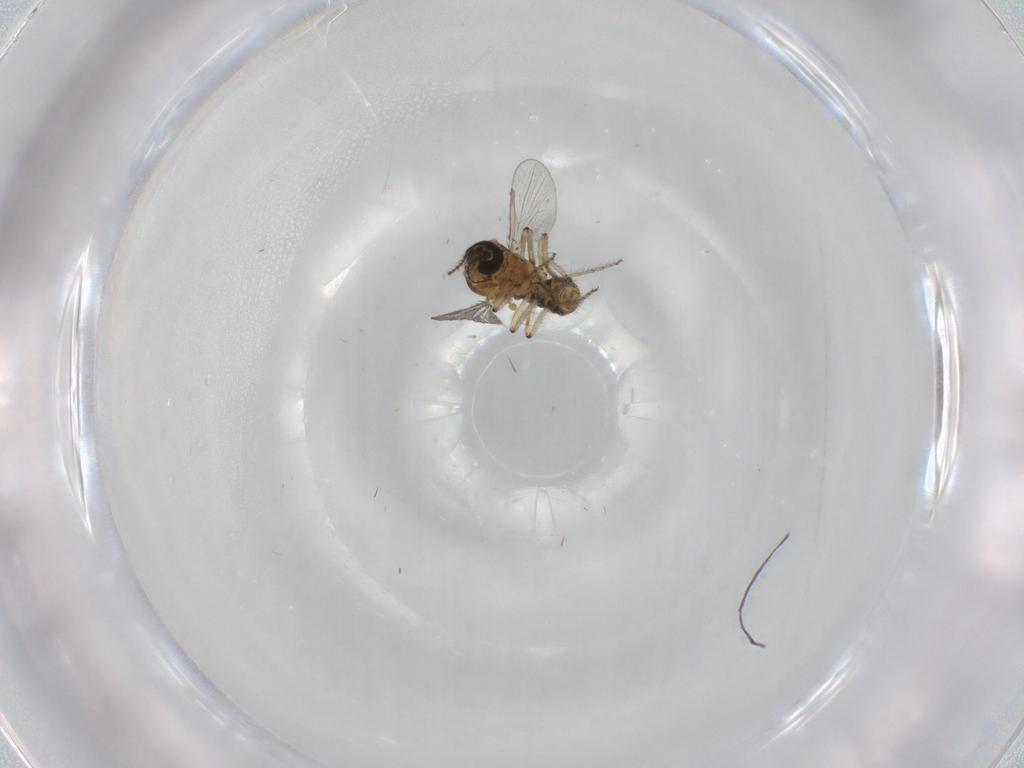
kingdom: Animalia
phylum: Arthropoda
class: Insecta
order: Diptera
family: Ceratopogonidae
